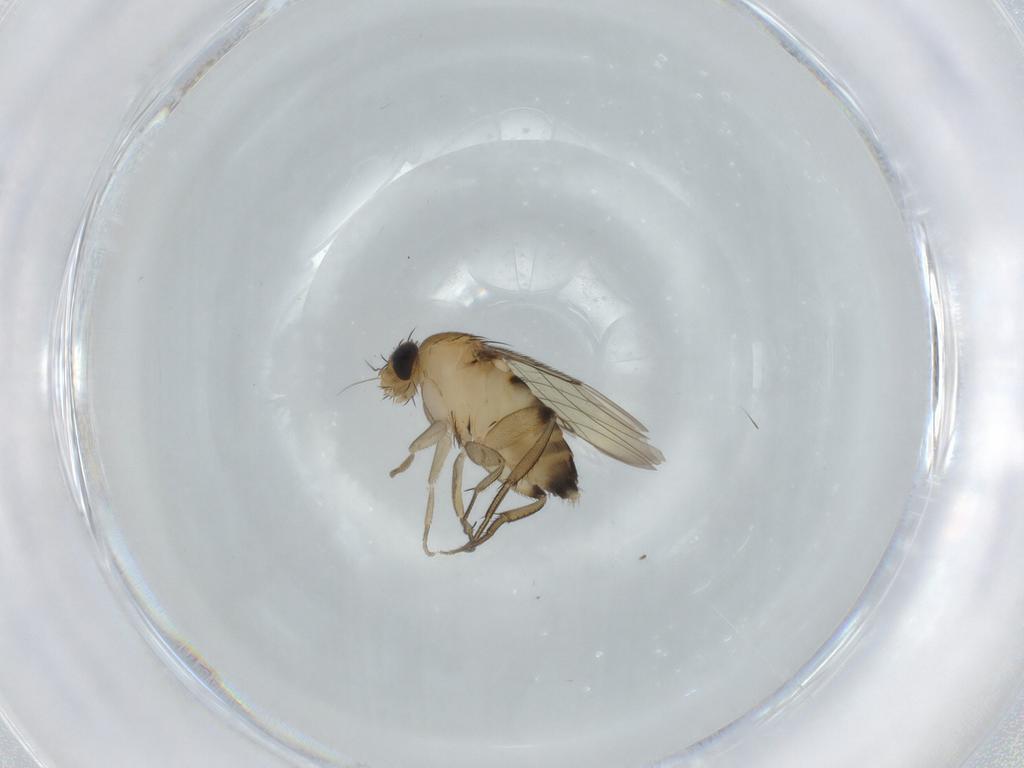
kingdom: Animalia
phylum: Arthropoda
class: Insecta
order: Diptera
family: Phoridae
